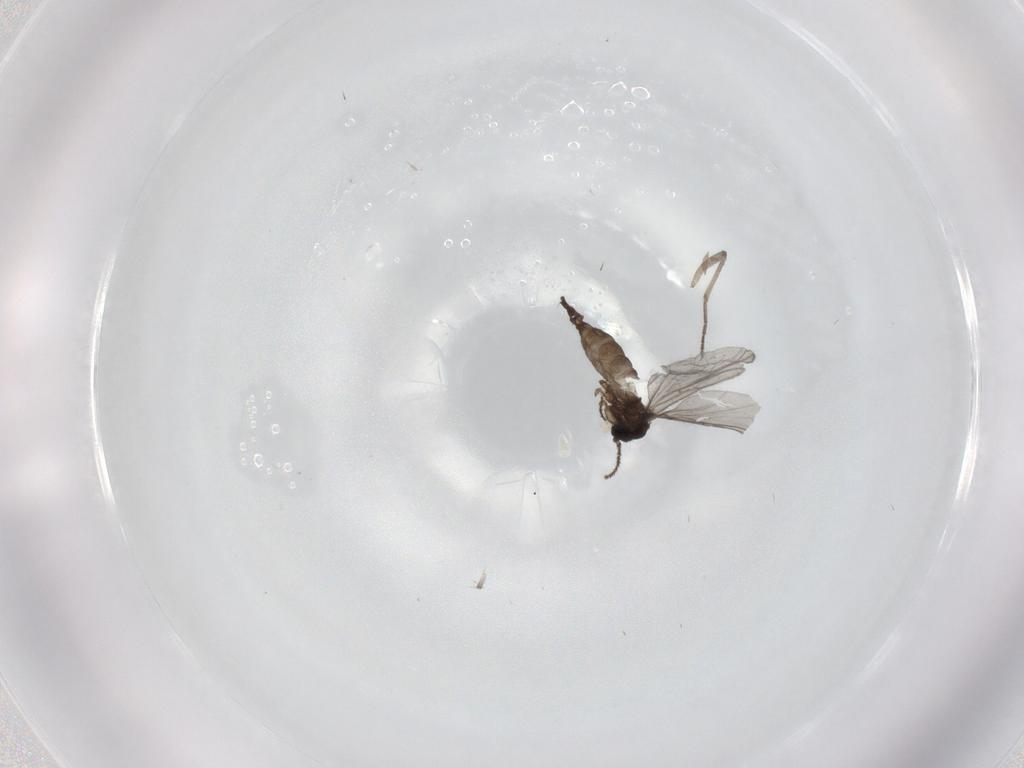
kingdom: Animalia
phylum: Arthropoda
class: Insecta
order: Diptera
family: Sciaridae
